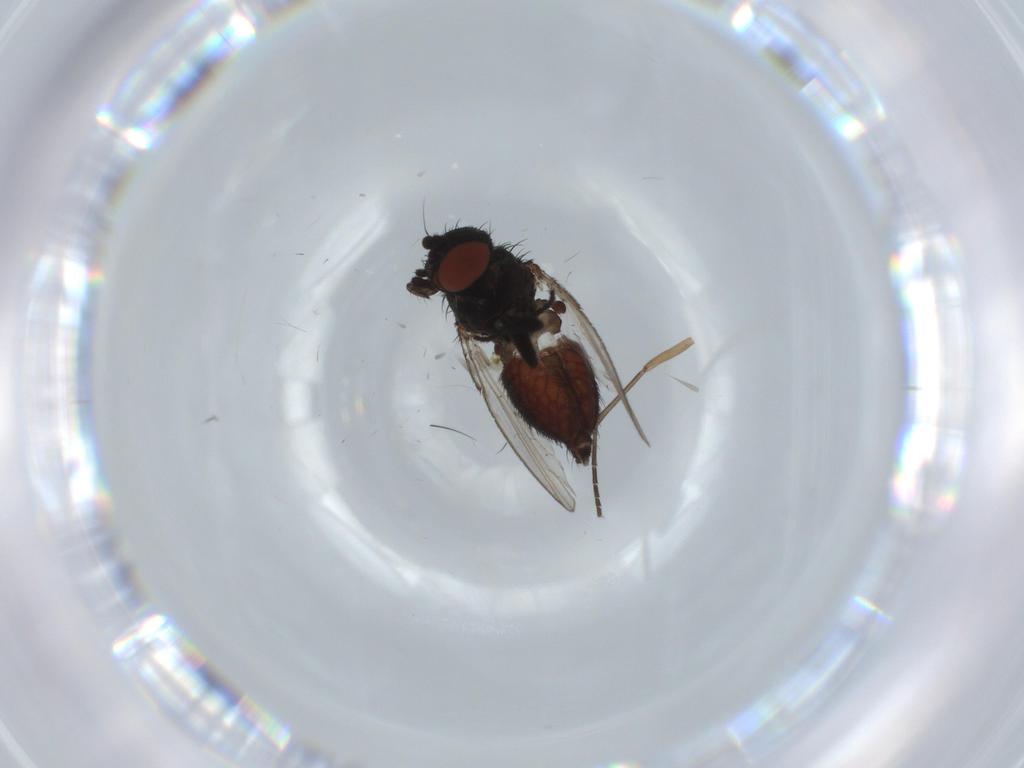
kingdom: Animalia
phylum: Arthropoda
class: Insecta
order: Diptera
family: Milichiidae
